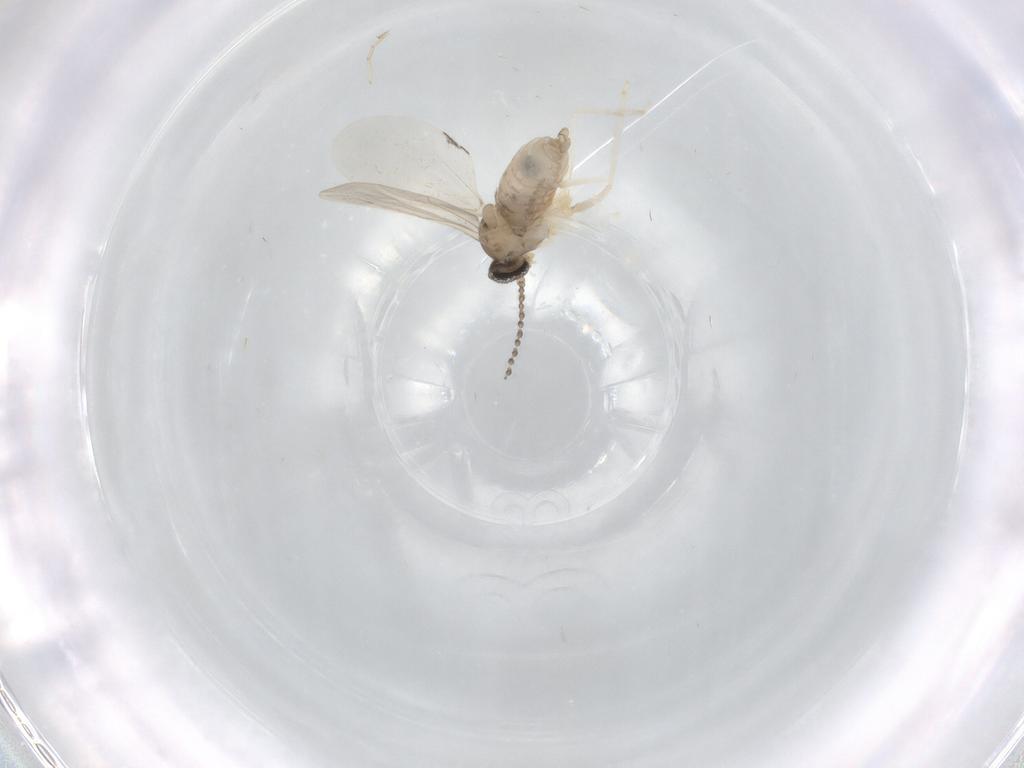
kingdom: Animalia
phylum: Arthropoda
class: Insecta
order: Diptera
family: Cecidomyiidae
